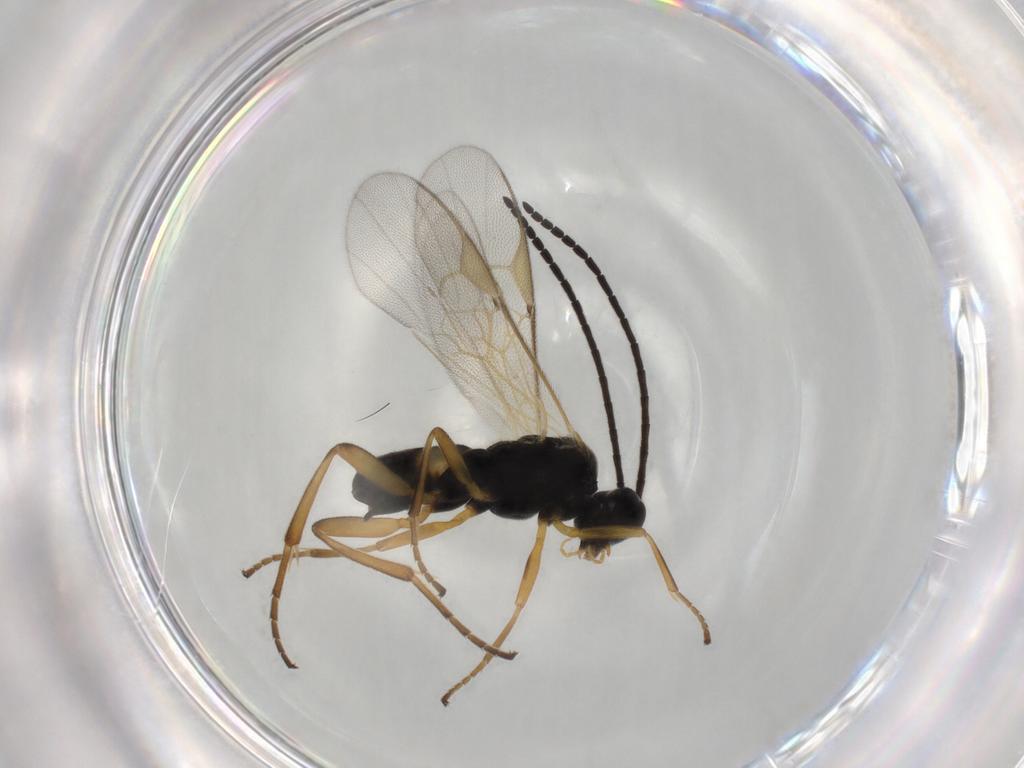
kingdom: Animalia
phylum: Arthropoda
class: Insecta
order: Hymenoptera
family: Braconidae
